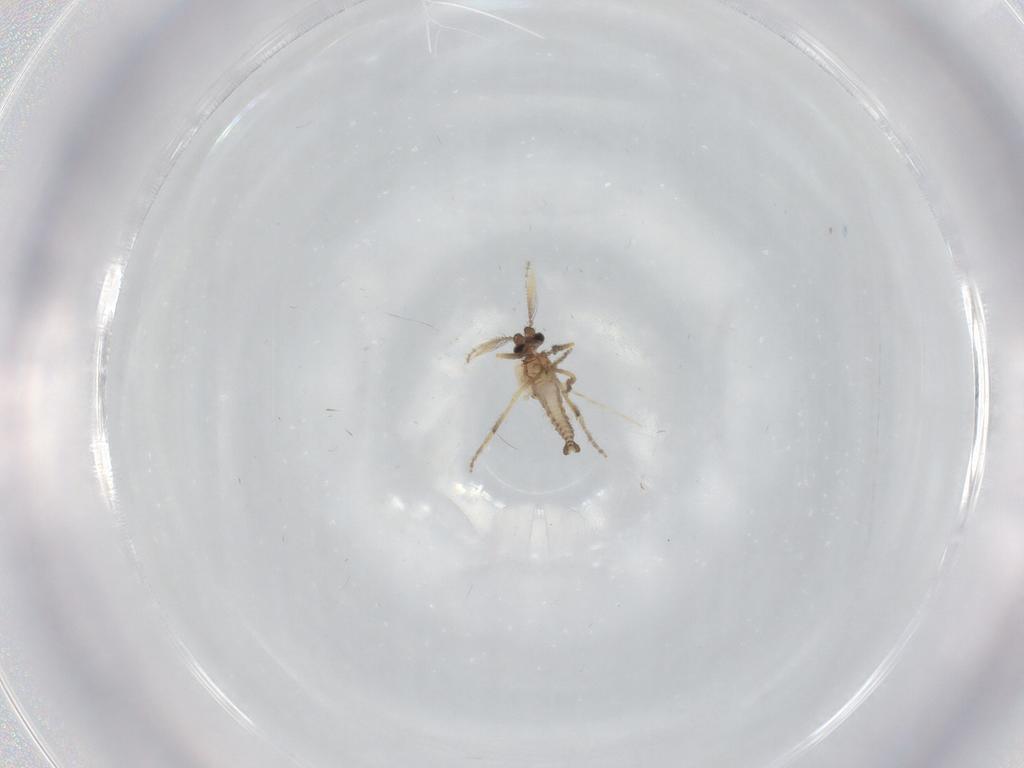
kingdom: Animalia
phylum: Arthropoda
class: Insecta
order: Diptera
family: Ceratopogonidae
